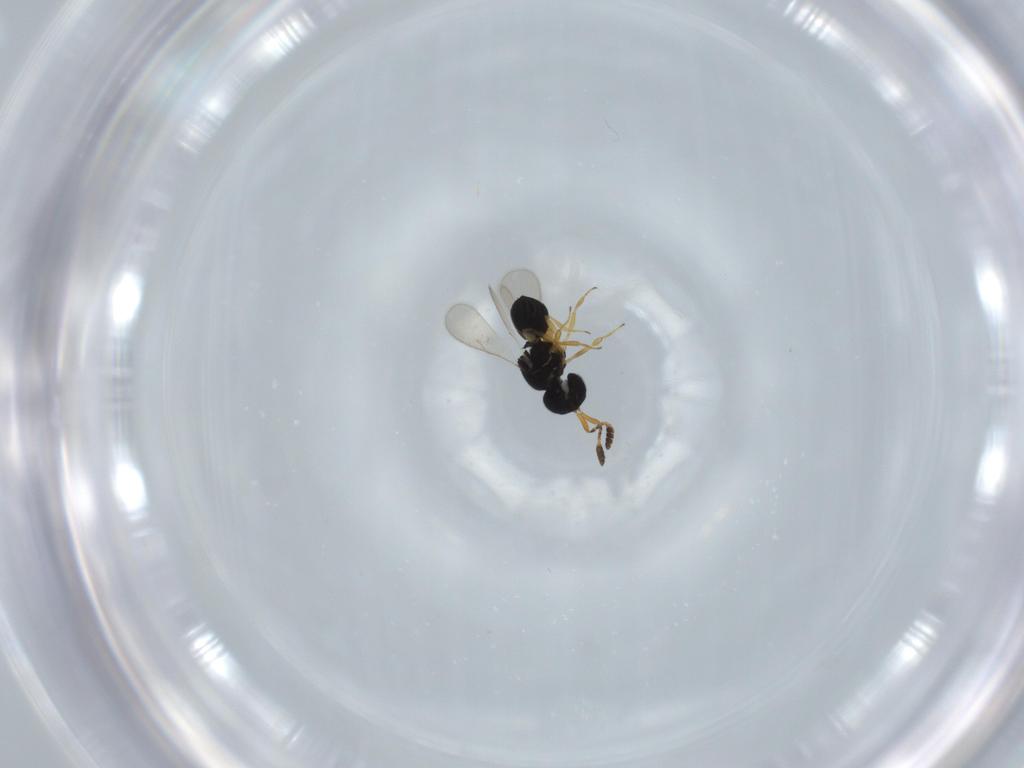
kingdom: Animalia
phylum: Arthropoda
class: Insecta
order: Hymenoptera
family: Scelionidae
